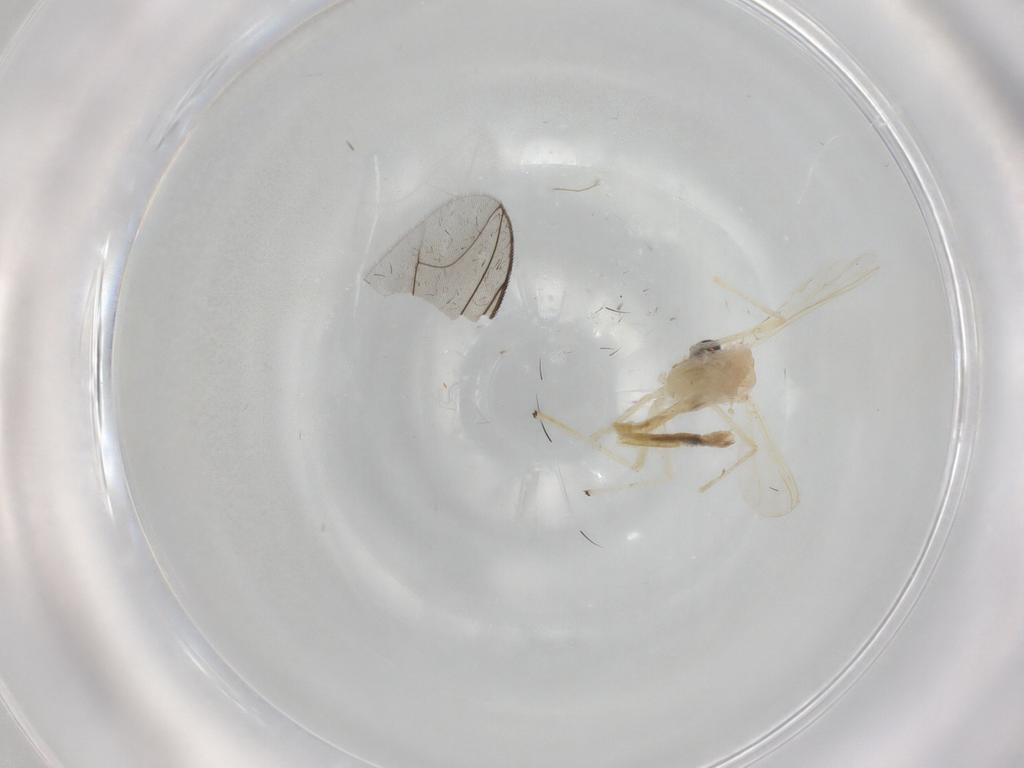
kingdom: Animalia
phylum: Arthropoda
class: Insecta
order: Diptera
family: Chironomidae
